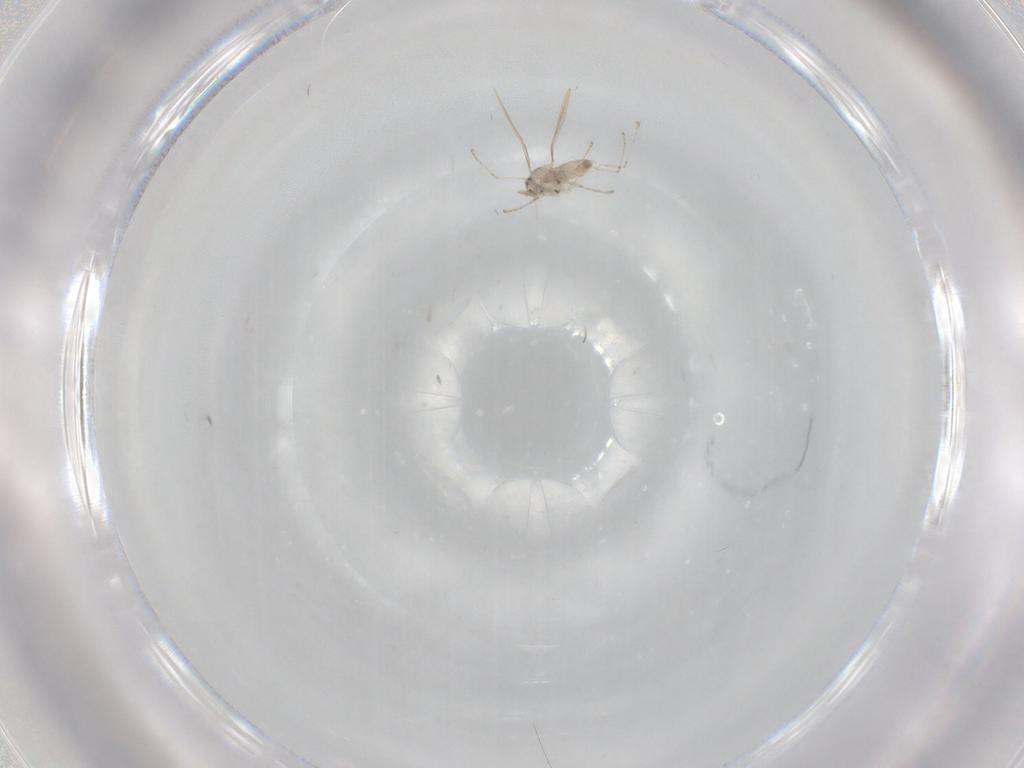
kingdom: Animalia
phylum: Arthropoda
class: Insecta
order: Diptera
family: Cecidomyiidae
